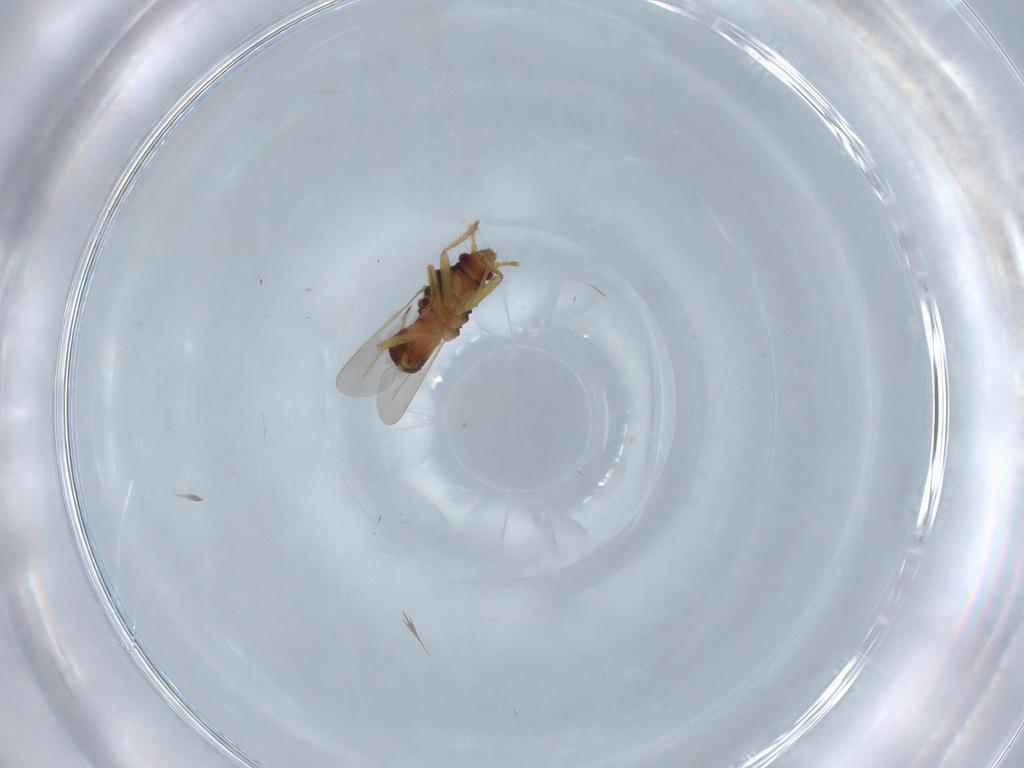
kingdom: Animalia
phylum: Arthropoda
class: Insecta
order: Hemiptera
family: Ceratocombidae
